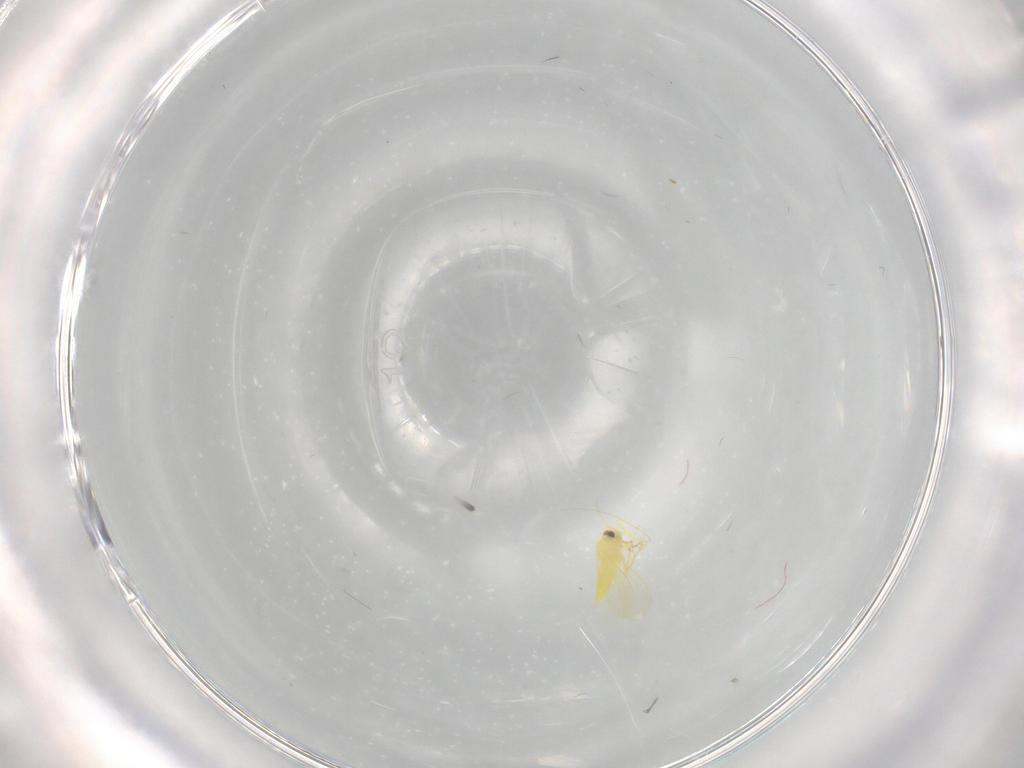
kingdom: Animalia
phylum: Arthropoda
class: Insecta
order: Hemiptera
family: Aleyrodidae
